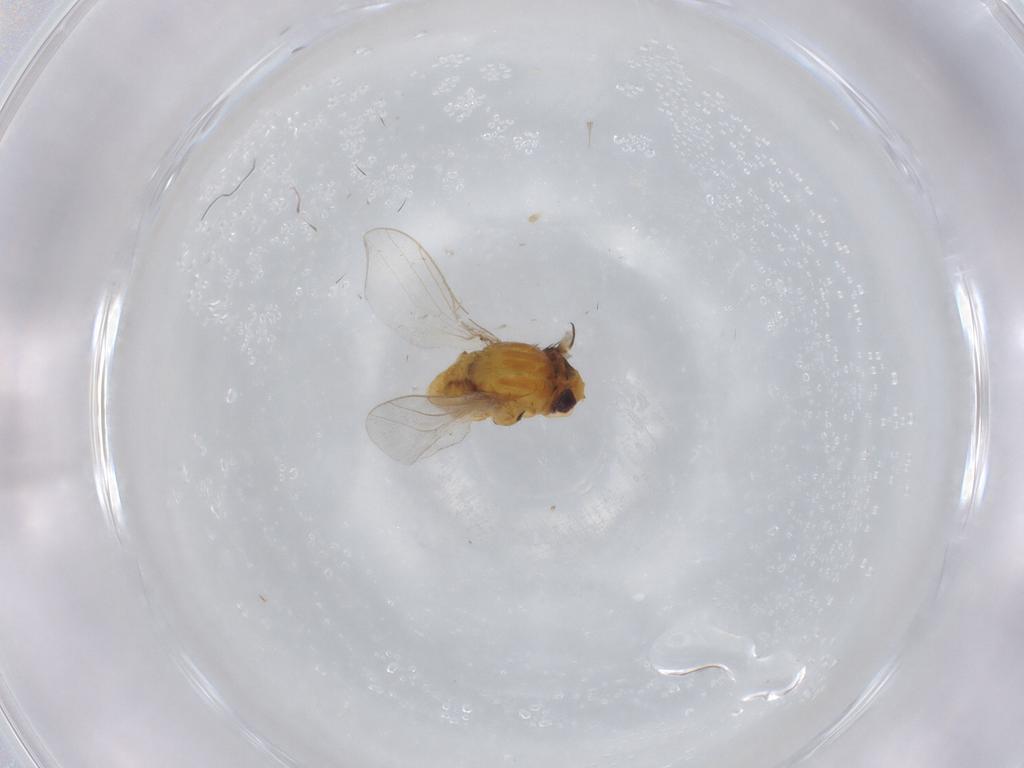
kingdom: Animalia
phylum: Arthropoda
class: Insecta
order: Diptera
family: Chloropidae
